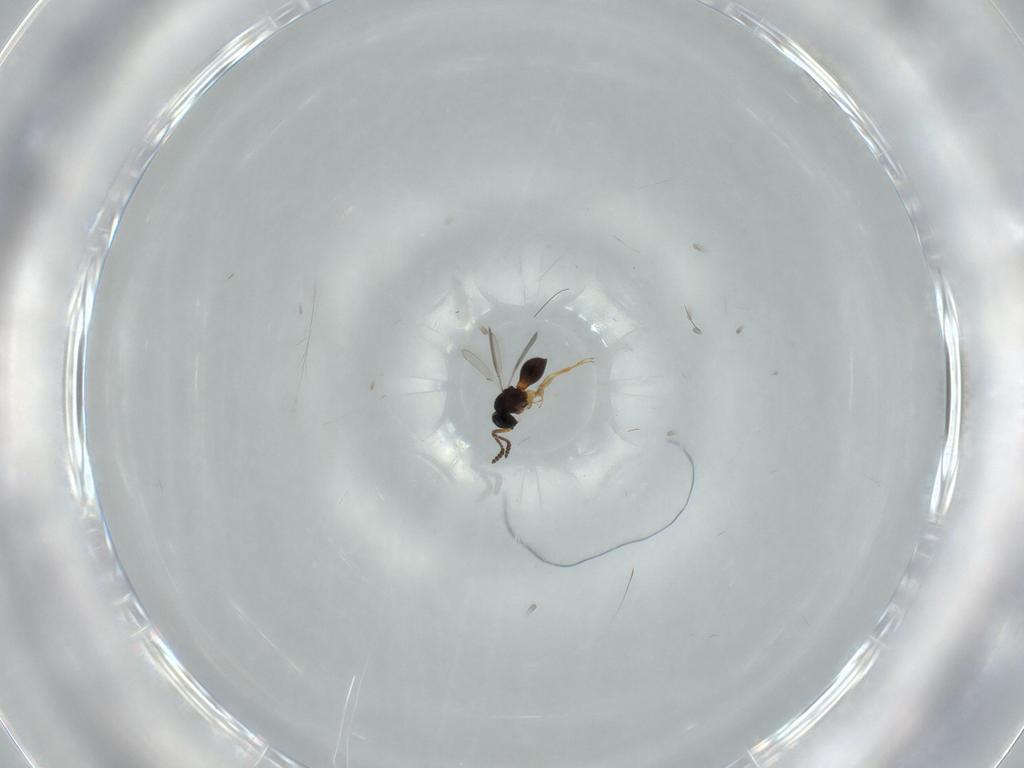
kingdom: Animalia
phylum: Arthropoda
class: Insecta
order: Hymenoptera
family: Scelionidae
